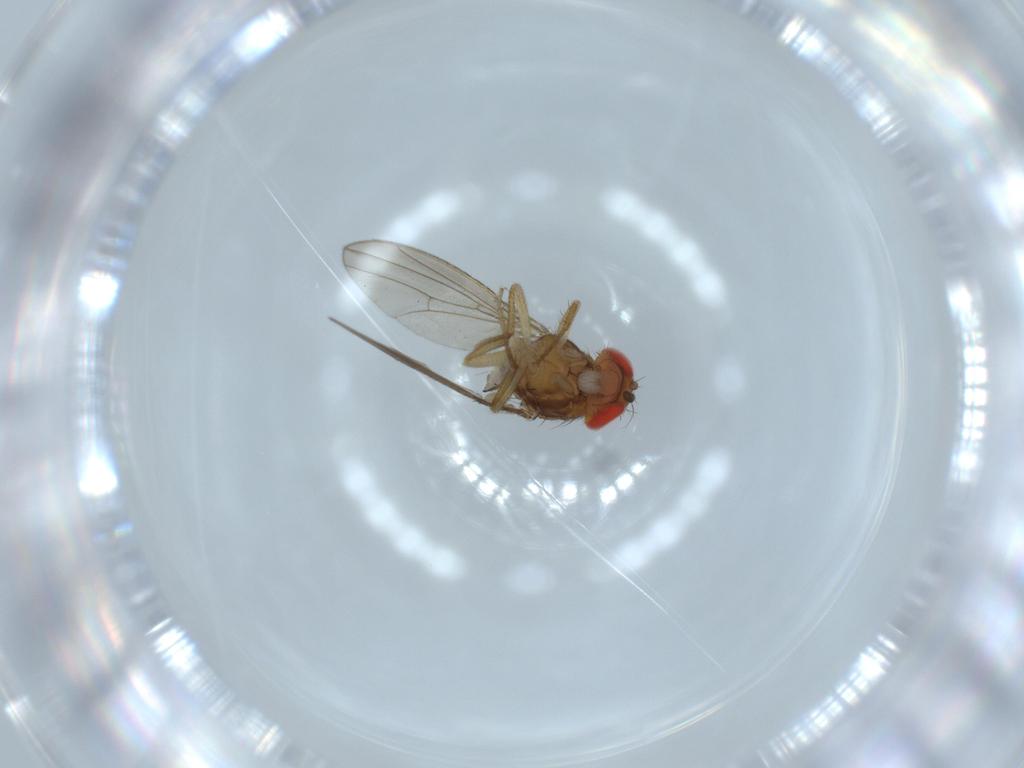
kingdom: Animalia
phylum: Arthropoda
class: Insecta
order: Diptera
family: Drosophilidae
